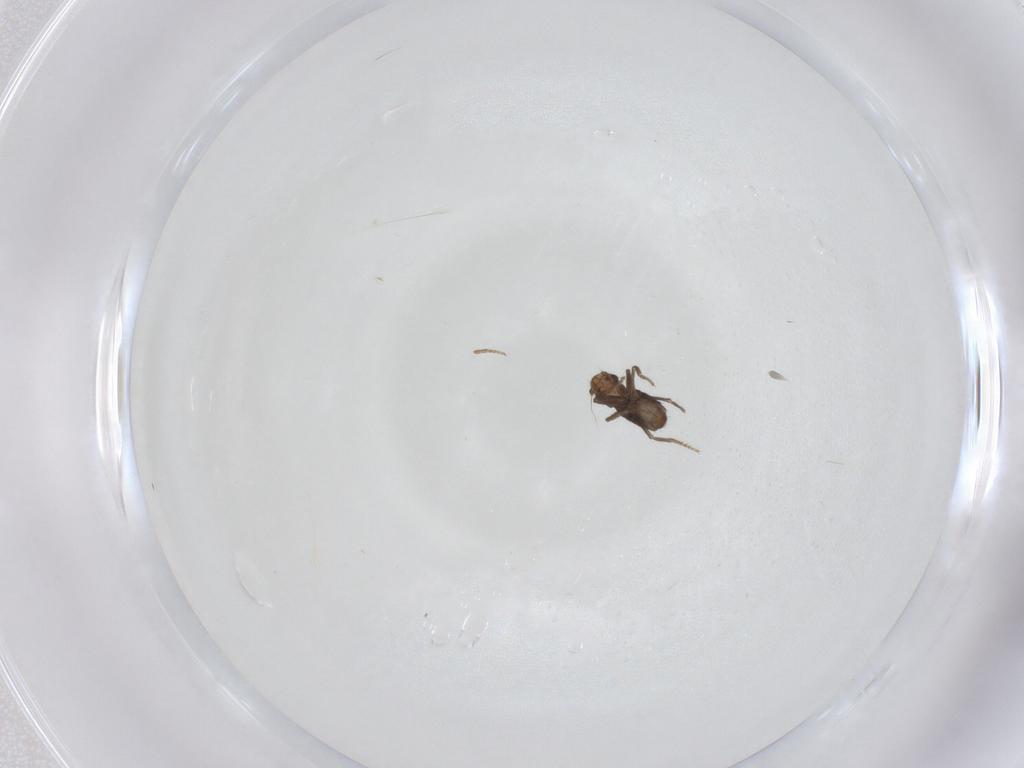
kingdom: Animalia
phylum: Arthropoda
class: Insecta
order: Diptera
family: Phoridae
